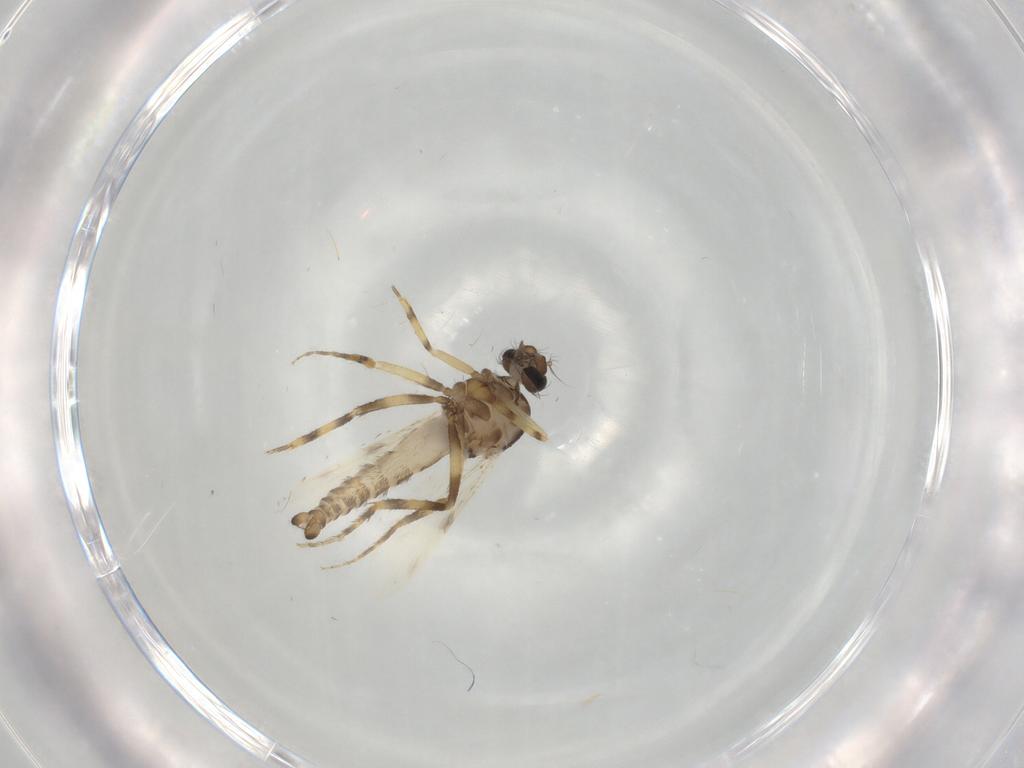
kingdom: Animalia
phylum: Arthropoda
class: Insecta
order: Diptera
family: Ceratopogonidae
